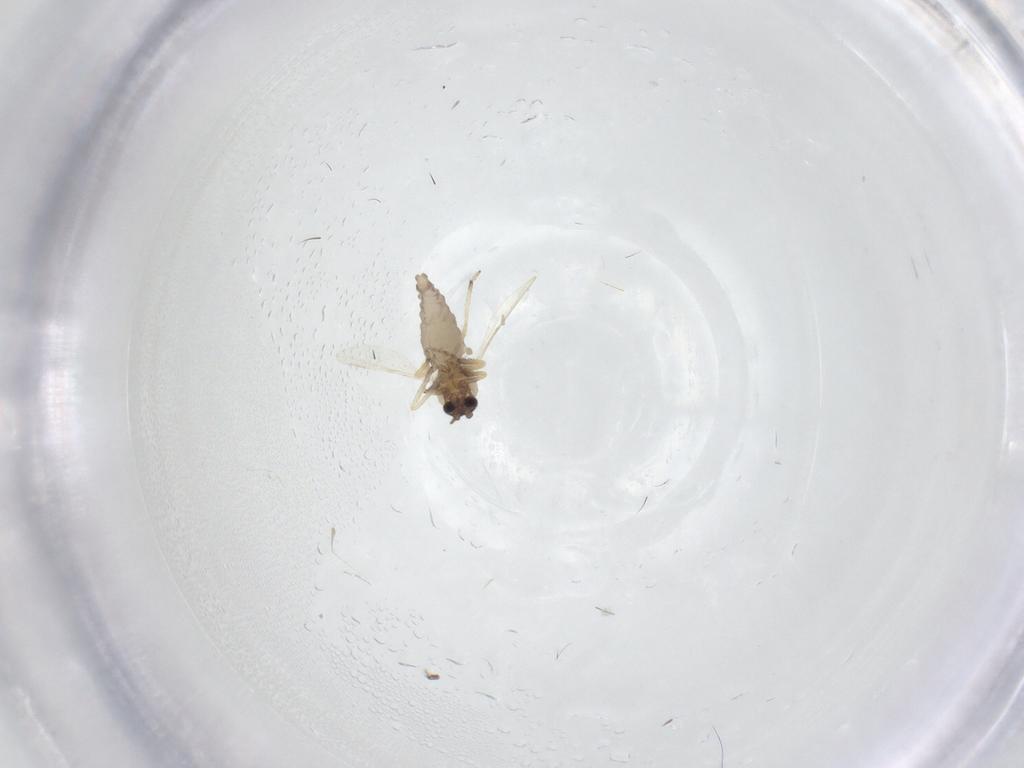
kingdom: Animalia
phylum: Arthropoda
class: Insecta
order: Diptera
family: Ceratopogonidae
